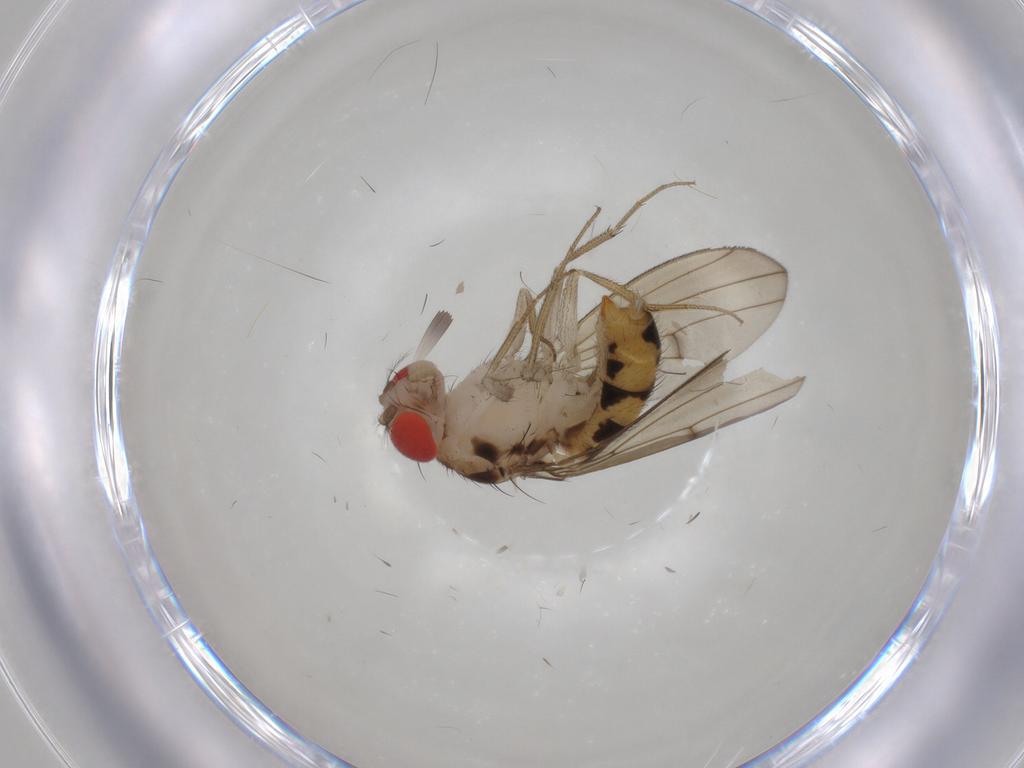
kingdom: Animalia
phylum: Arthropoda
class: Insecta
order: Diptera
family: Drosophilidae
